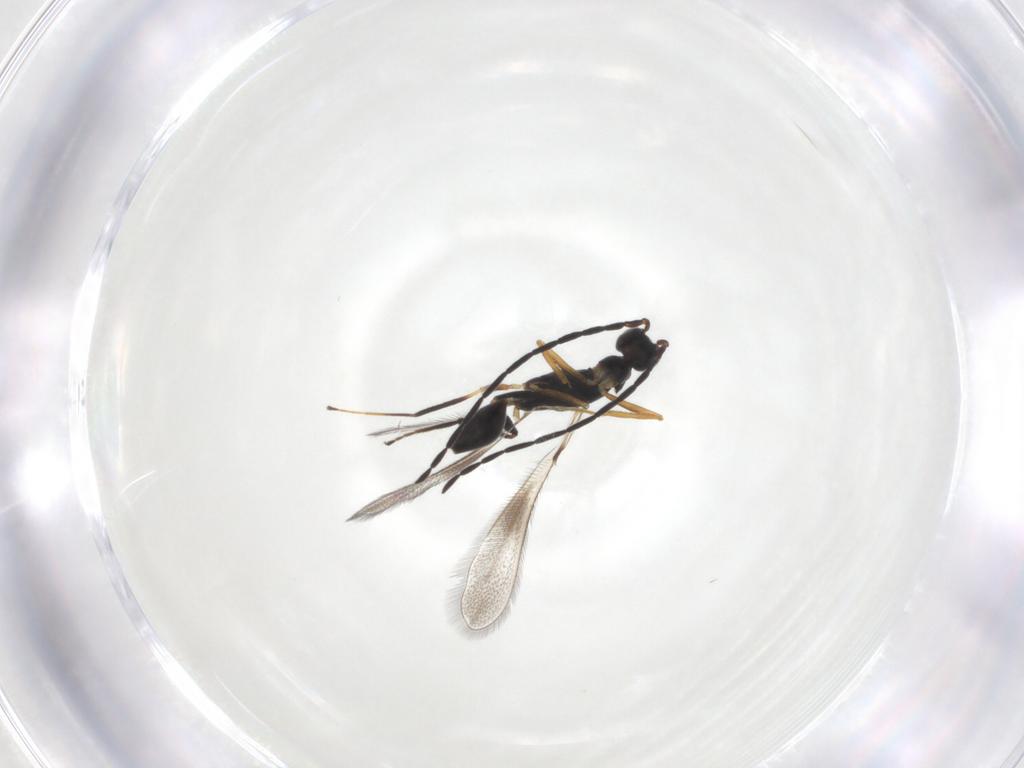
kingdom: Animalia
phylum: Arthropoda
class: Insecta
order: Hymenoptera
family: Mymaridae
